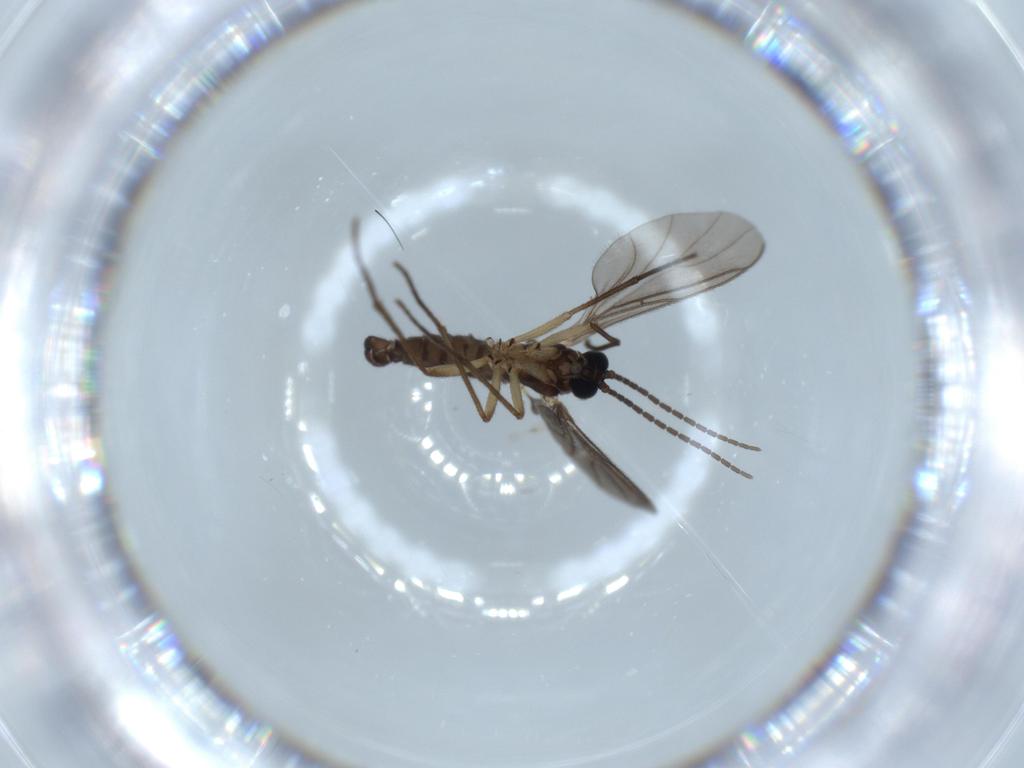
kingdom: Animalia
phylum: Arthropoda
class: Insecta
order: Diptera
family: Sciaridae
